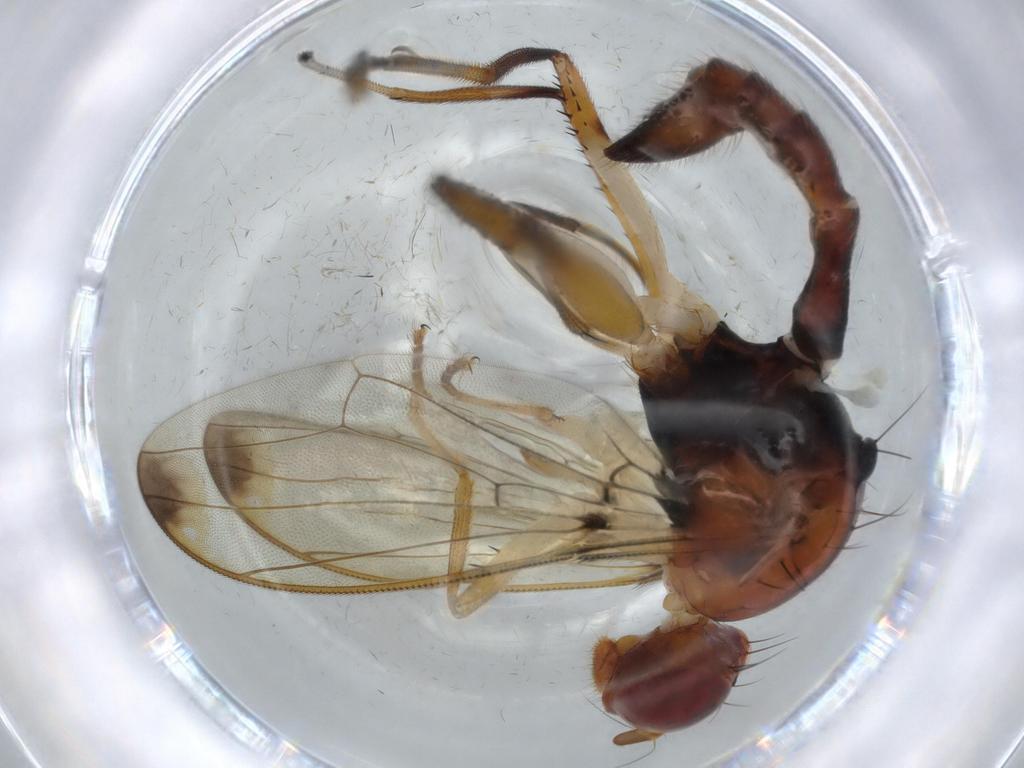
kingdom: Animalia
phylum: Arthropoda
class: Insecta
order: Diptera
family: Richardiidae
